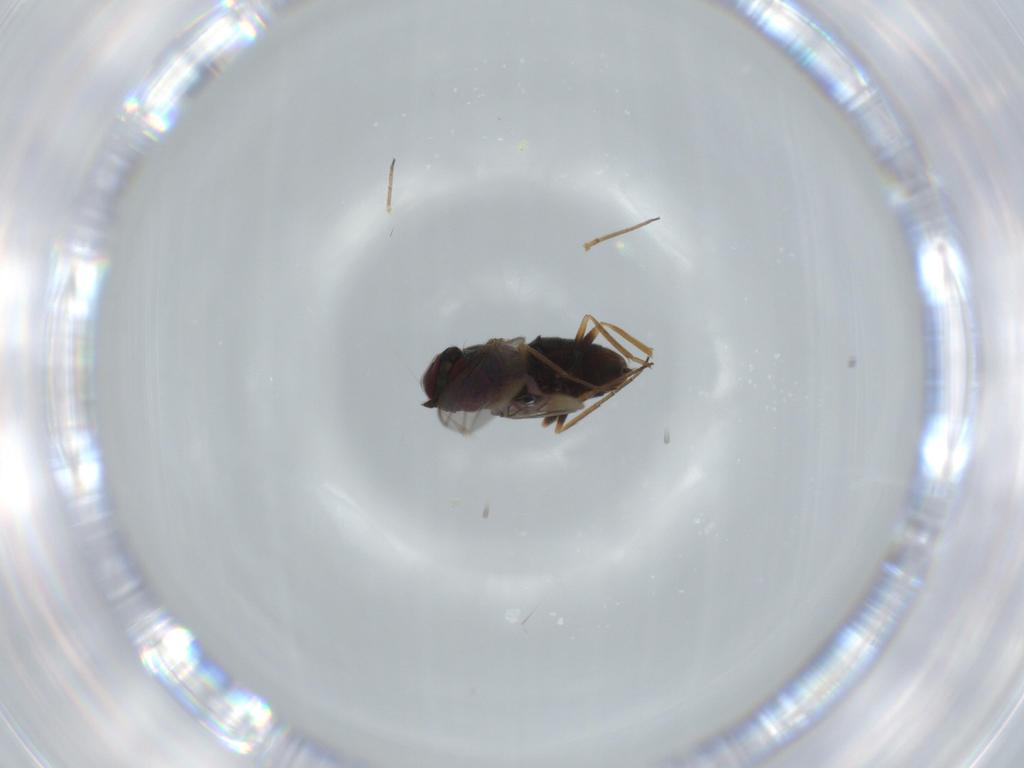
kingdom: Animalia
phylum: Arthropoda
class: Insecta
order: Diptera
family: Dolichopodidae
